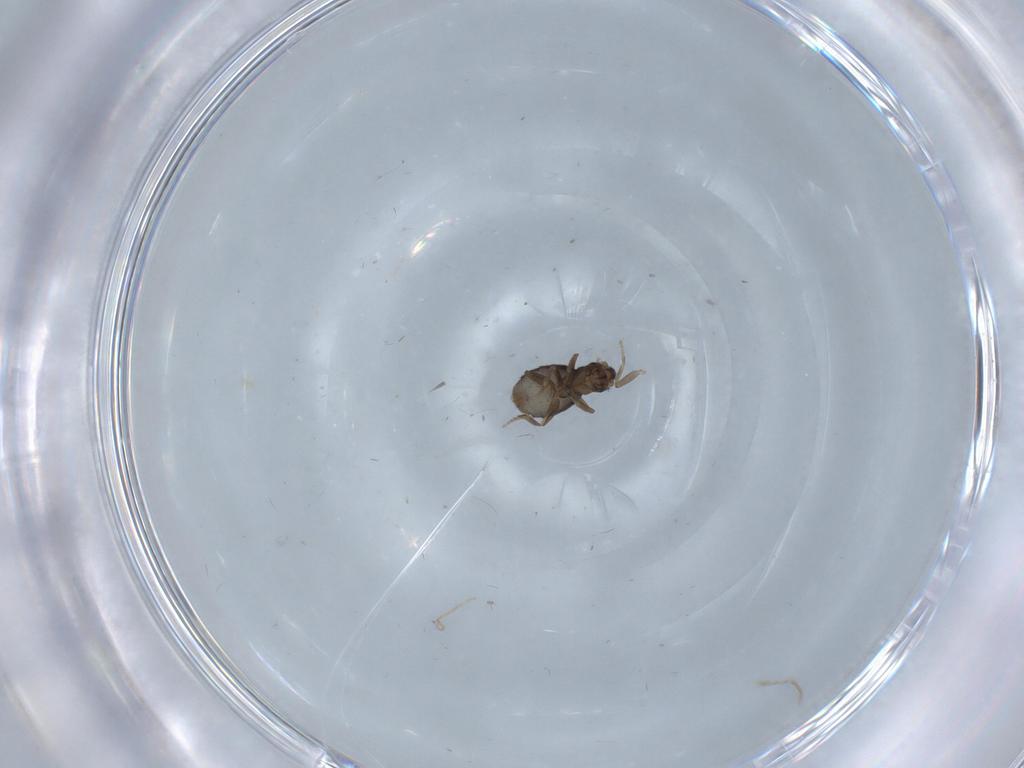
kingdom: Animalia
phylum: Arthropoda
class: Insecta
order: Diptera
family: Phoridae
